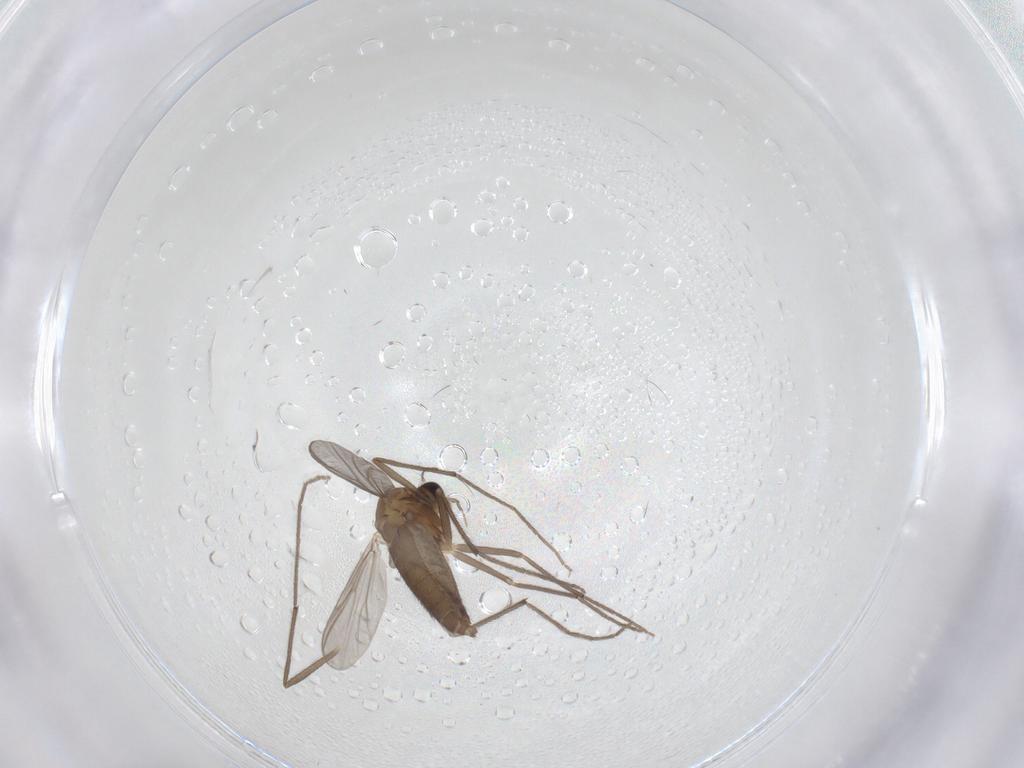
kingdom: Animalia
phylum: Arthropoda
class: Insecta
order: Diptera
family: Chironomidae
